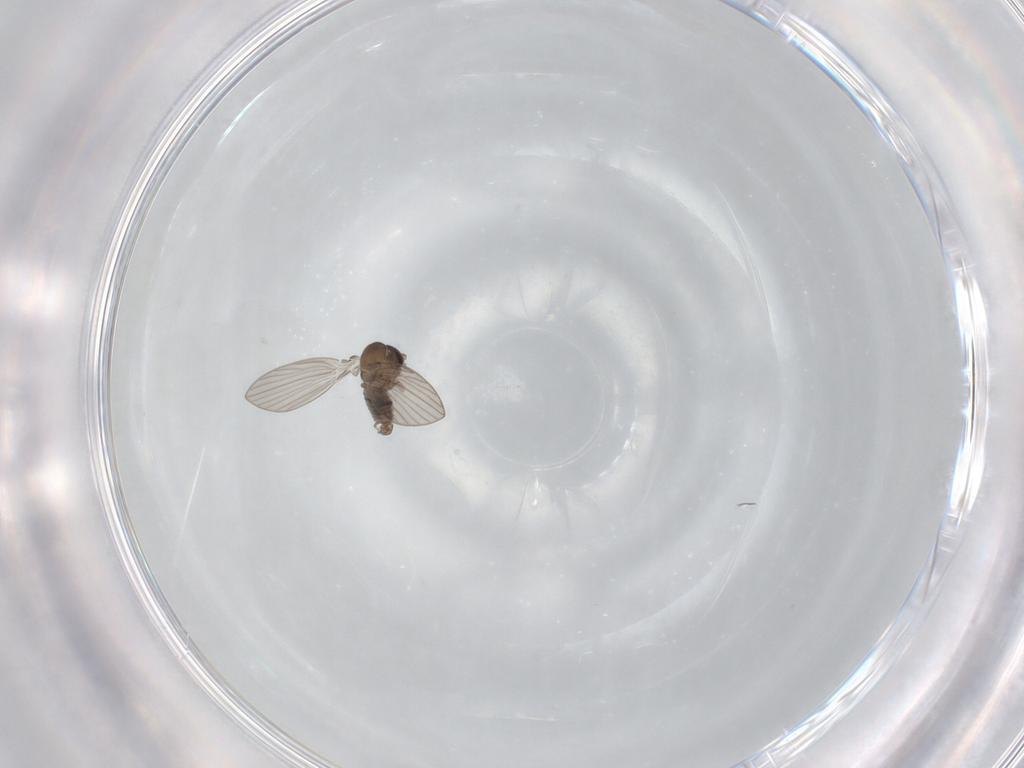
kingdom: Animalia
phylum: Arthropoda
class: Insecta
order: Diptera
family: Psychodidae
